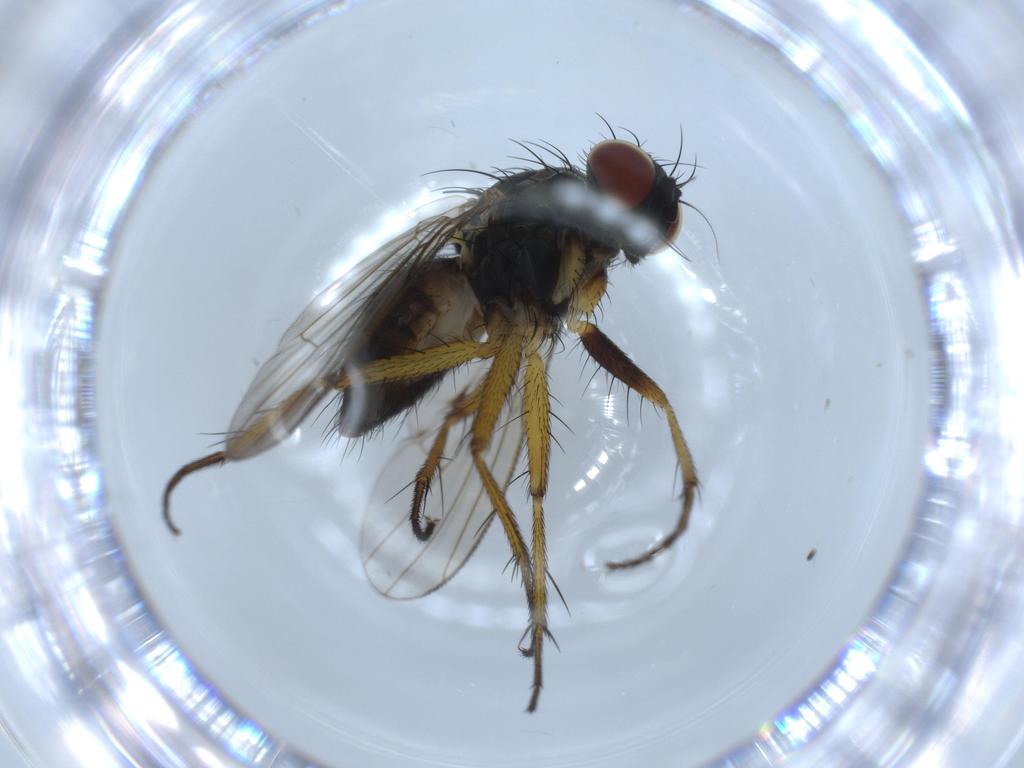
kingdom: Animalia
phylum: Arthropoda
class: Insecta
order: Diptera
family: Muscidae
